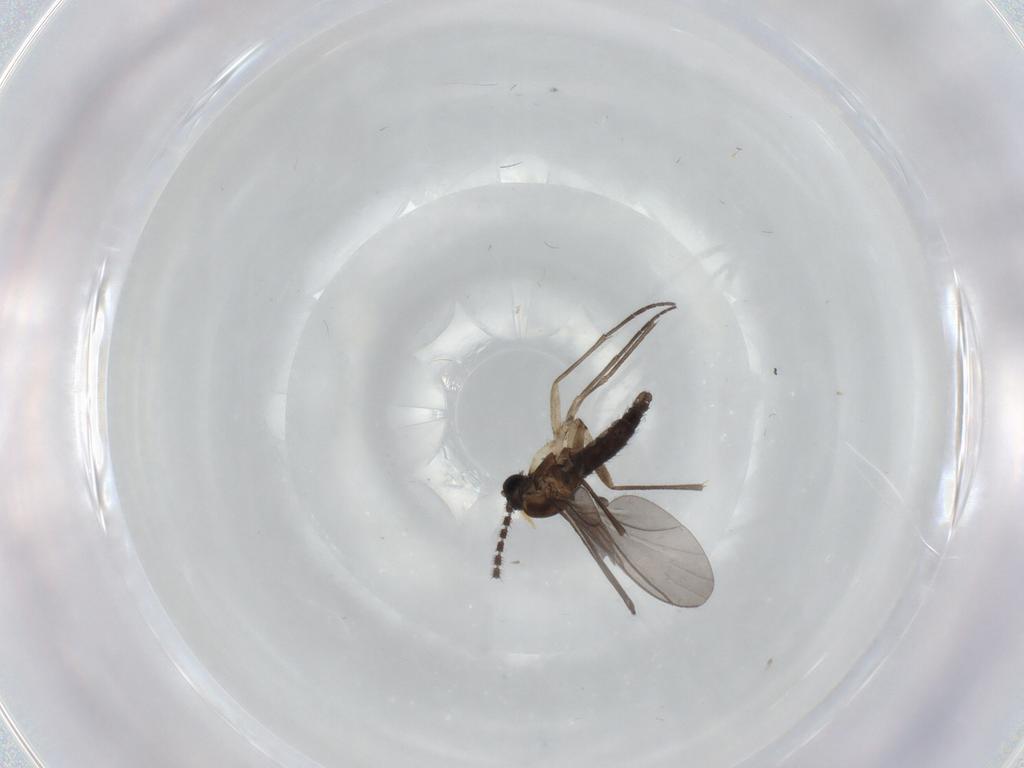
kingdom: Animalia
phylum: Arthropoda
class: Insecta
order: Diptera
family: Sciaridae
